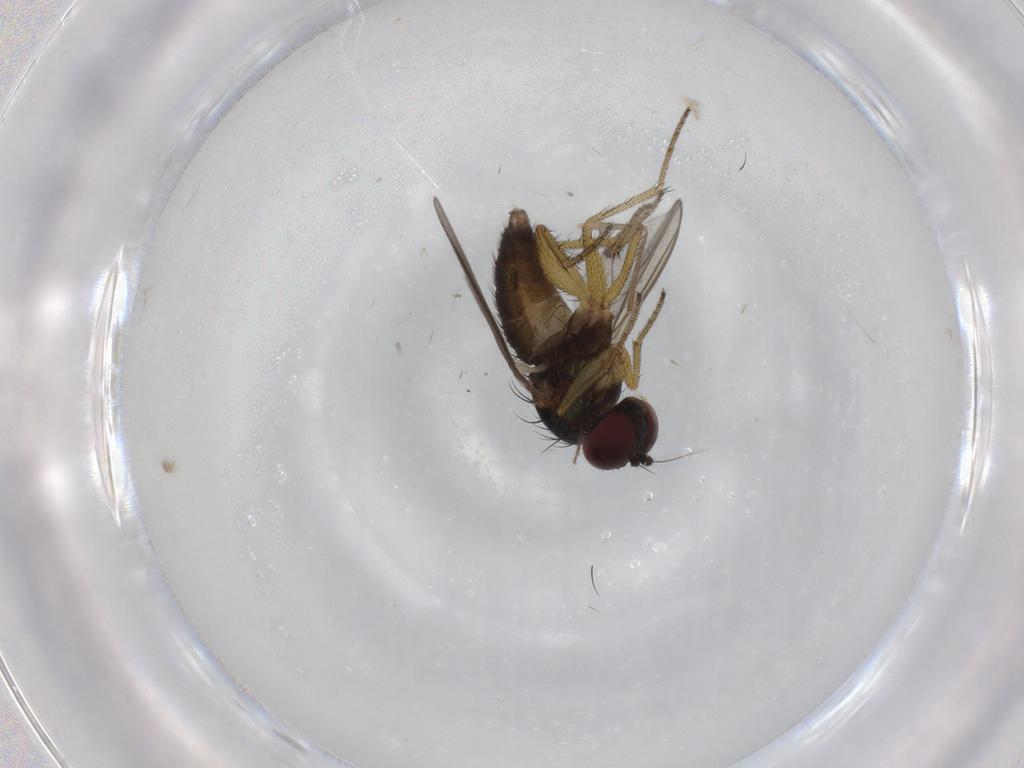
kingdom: Animalia
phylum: Arthropoda
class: Insecta
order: Diptera
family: Dolichopodidae
